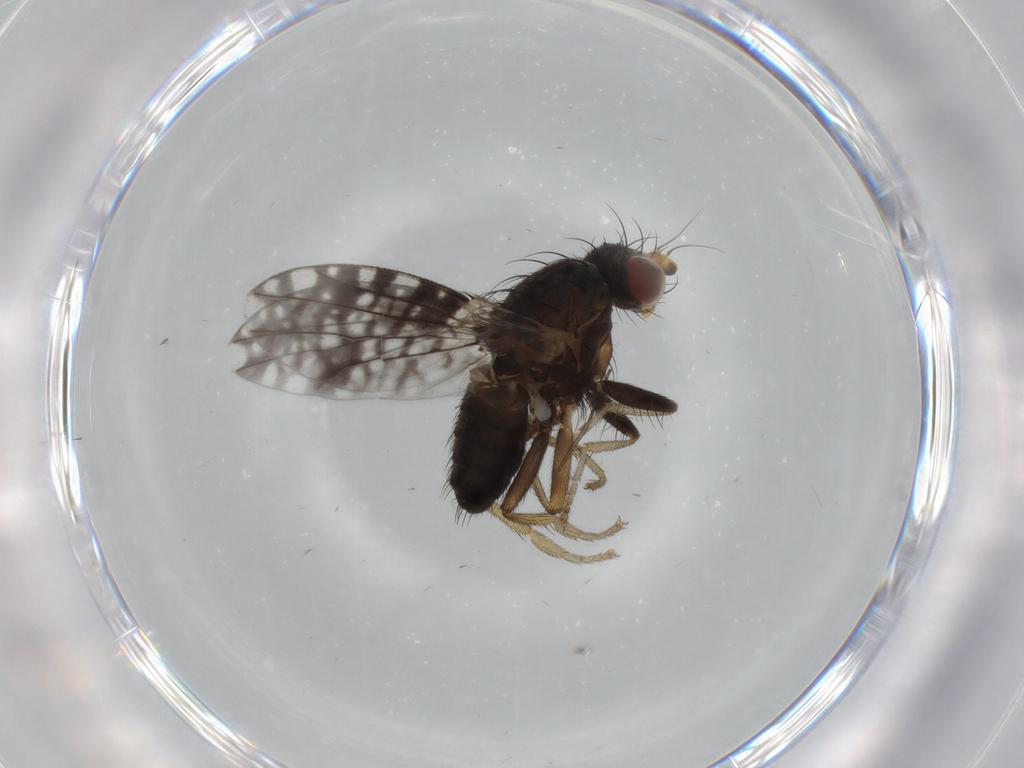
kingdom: Animalia
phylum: Arthropoda
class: Insecta
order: Diptera
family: Tephritidae
